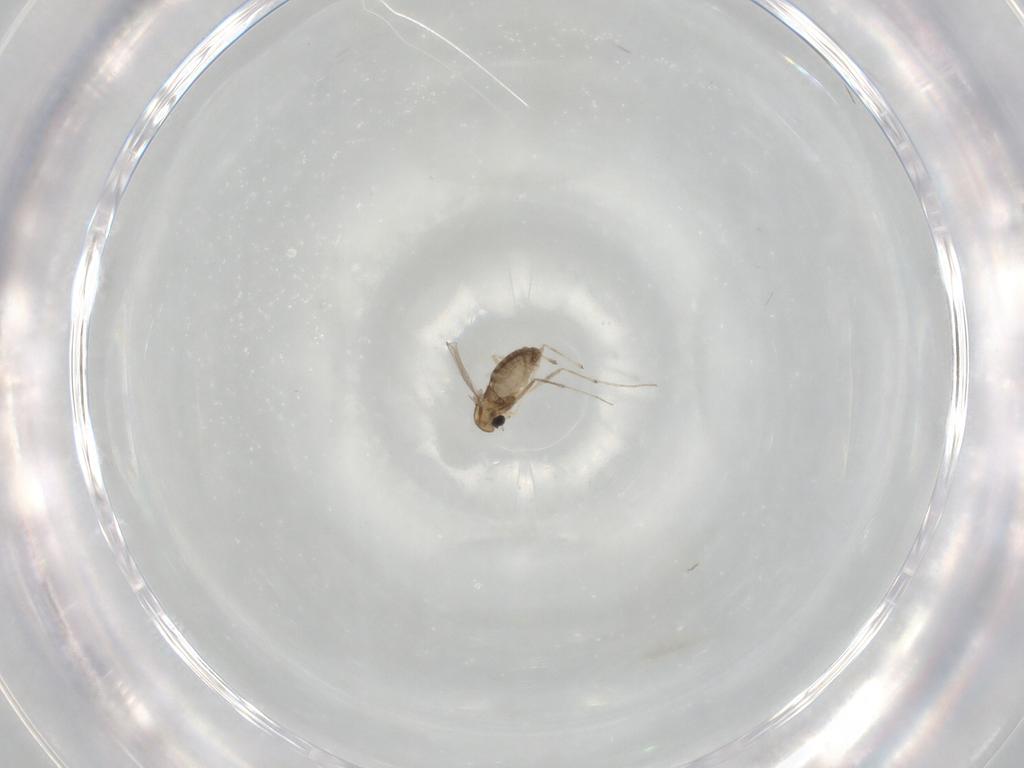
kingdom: Animalia
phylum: Arthropoda
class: Insecta
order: Diptera
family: Chironomidae
